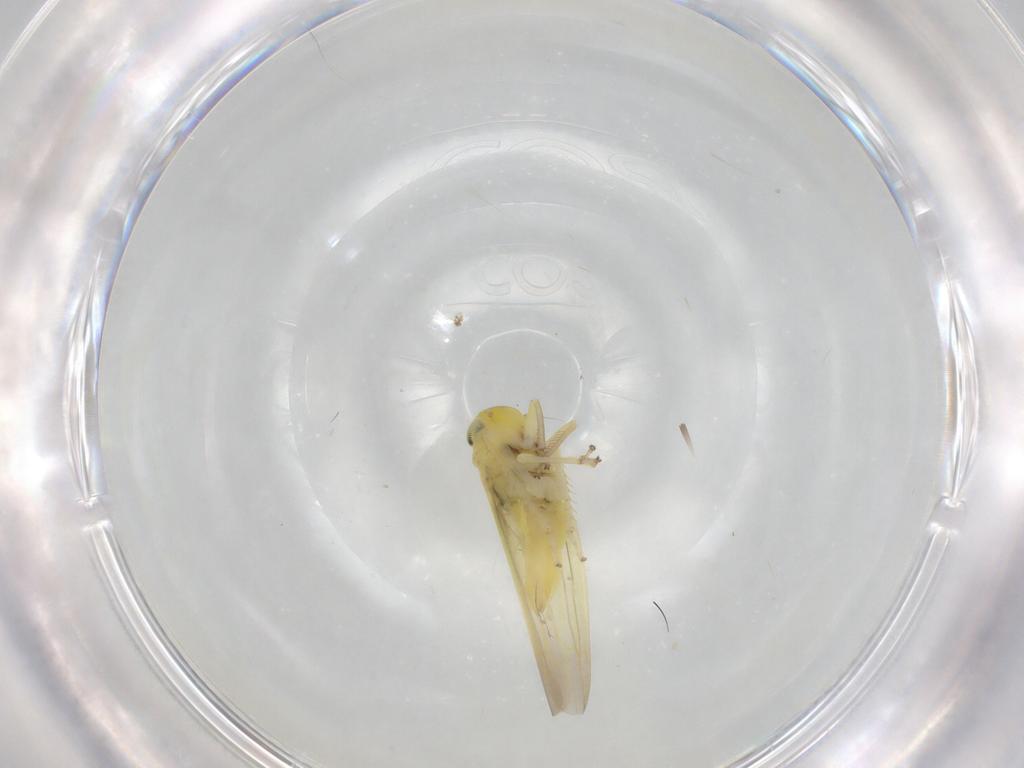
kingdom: Animalia
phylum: Arthropoda
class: Insecta
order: Hemiptera
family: Cicadellidae
